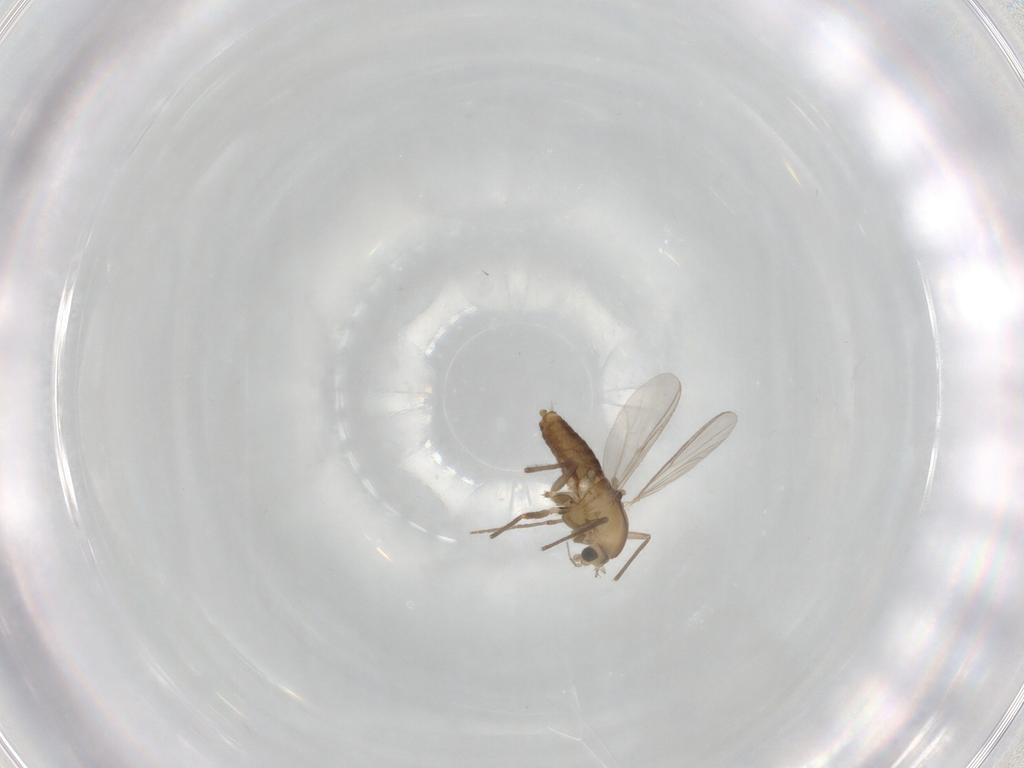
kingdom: Animalia
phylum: Arthropoda
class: Insecta
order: Diptera
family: Chironomidae
